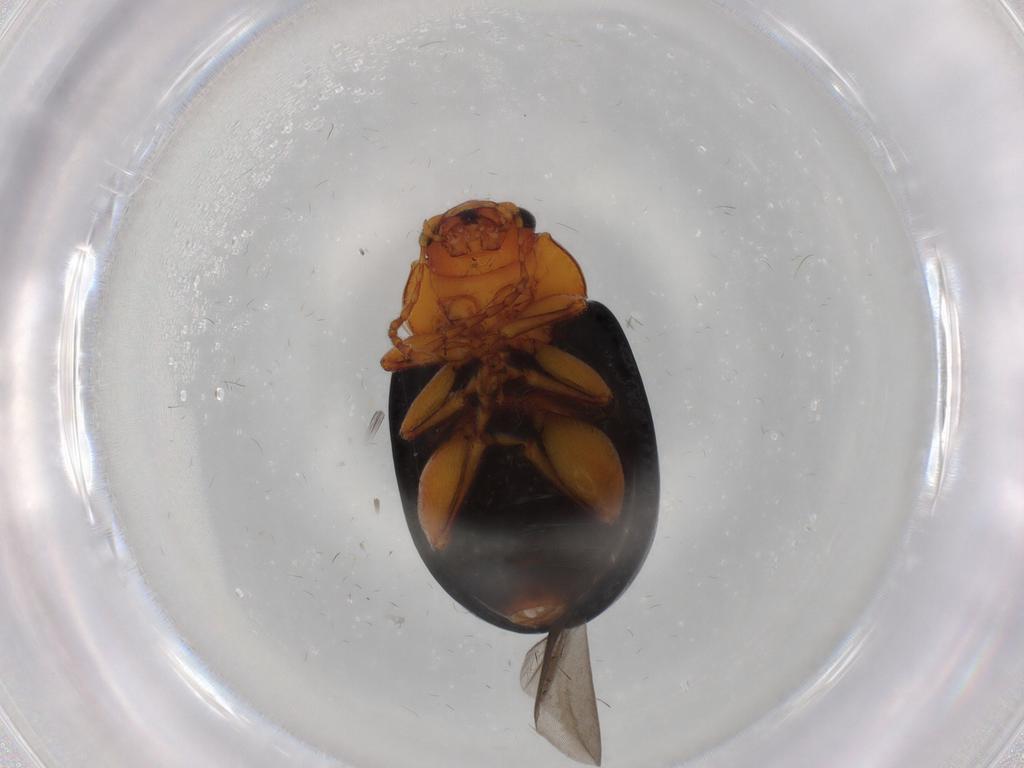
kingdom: Animalia
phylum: Arthropoda
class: Insecta
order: Coleoptera
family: Chrysomelidae
